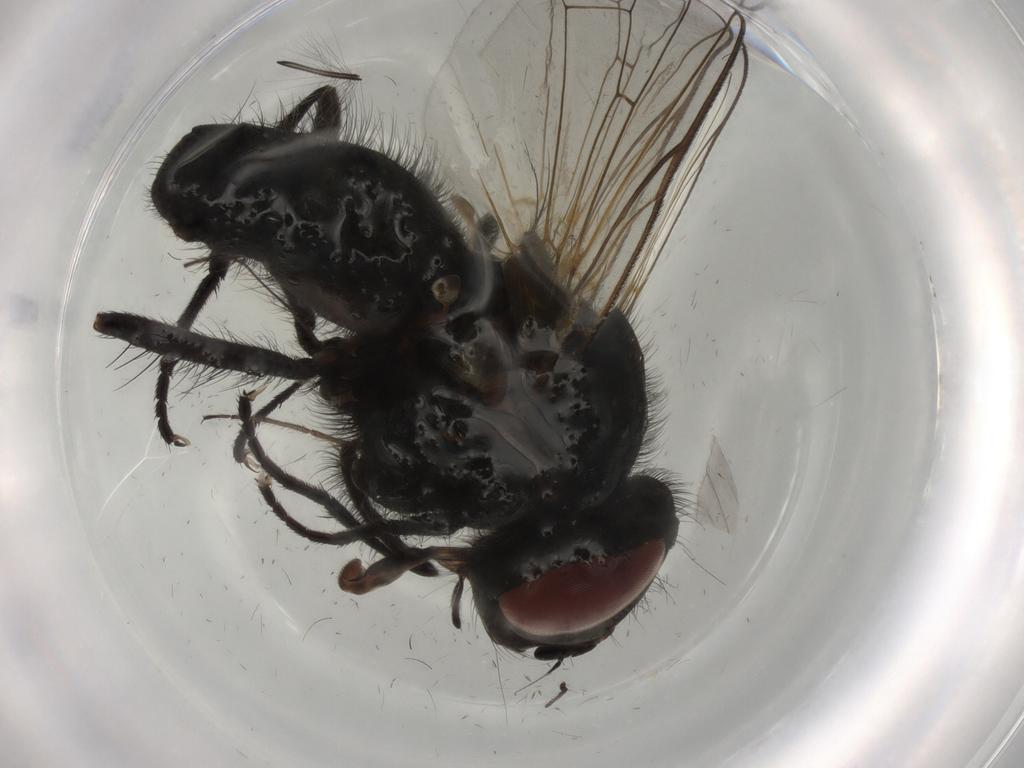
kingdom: Animalia
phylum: Arthropoda
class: Insecta
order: Diptera
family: Anthomyiidae
